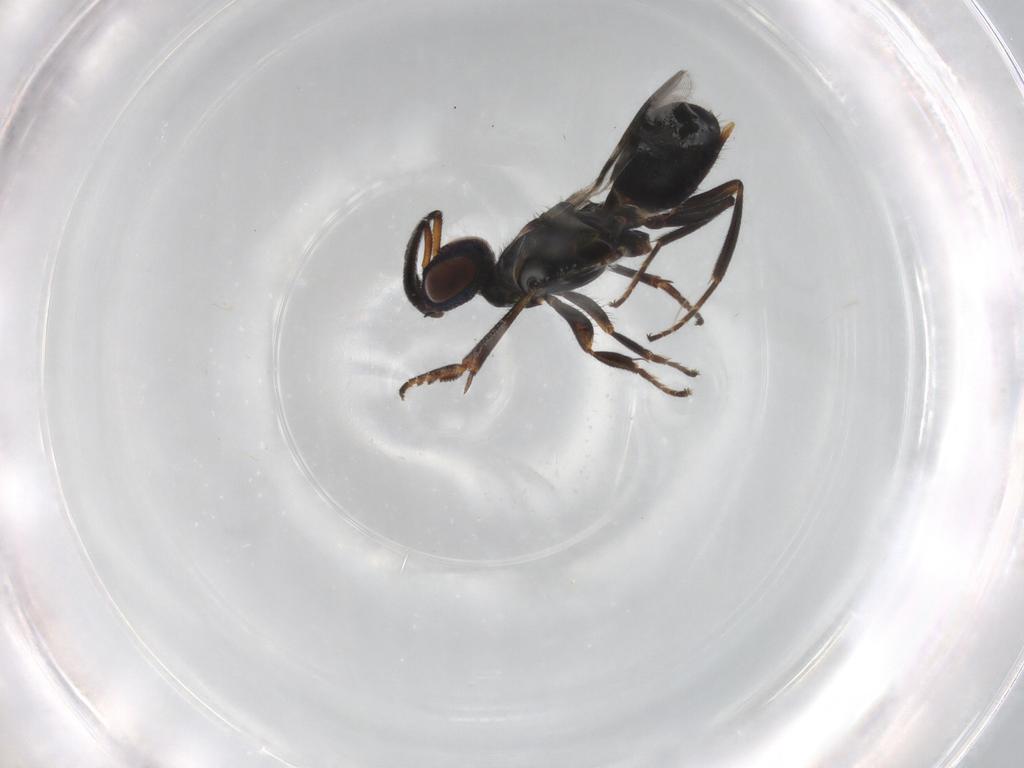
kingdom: Animalia
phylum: Arthropoda
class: Insecta
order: Hymenoptera
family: Eupelmidae
